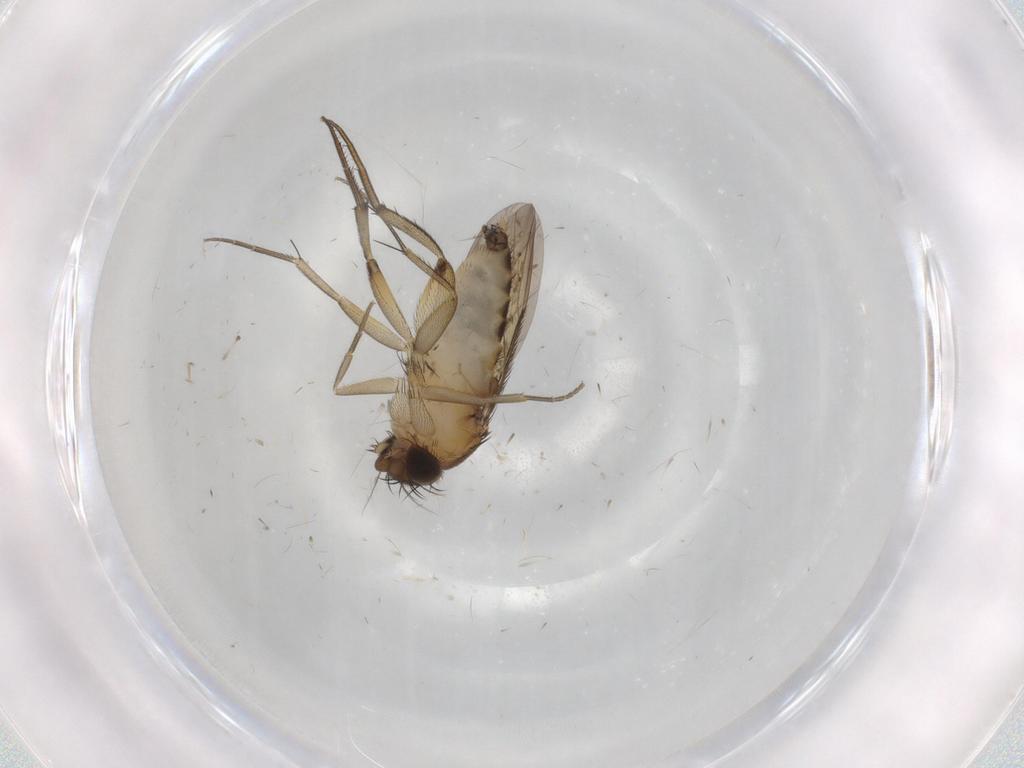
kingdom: Animalia
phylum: Arthropoda
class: Insecta
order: Diptera
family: Phoridae
